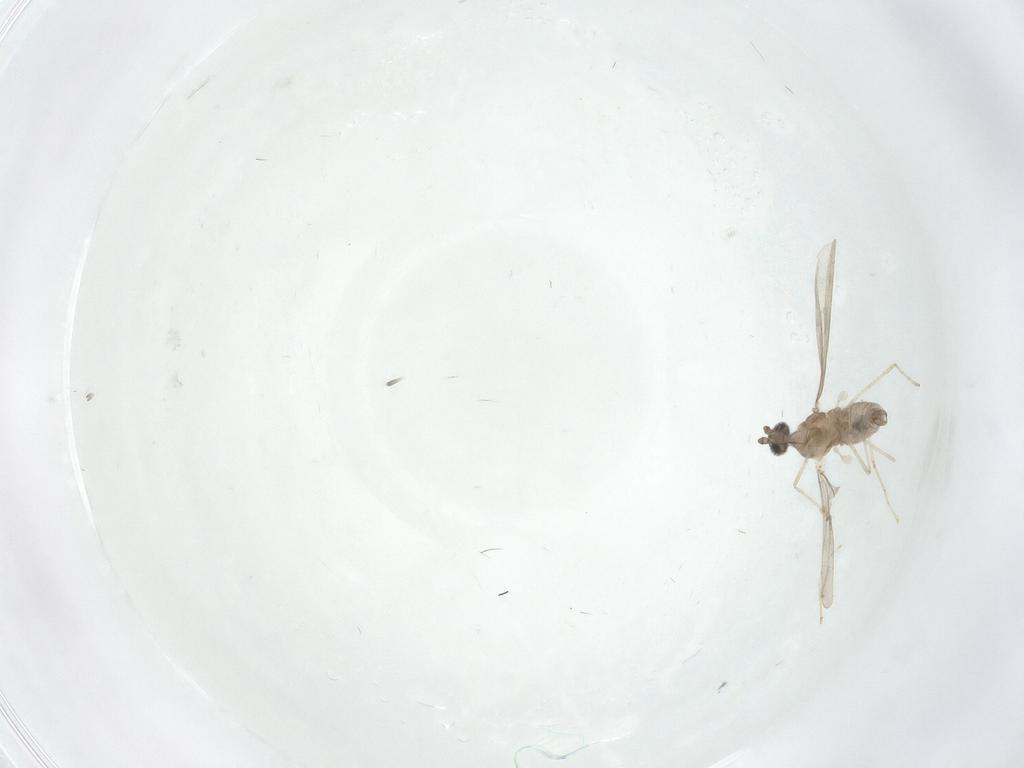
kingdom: Animalia
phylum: Arthropoda
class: Insecta
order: Diptera
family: Cecidomyiidae
